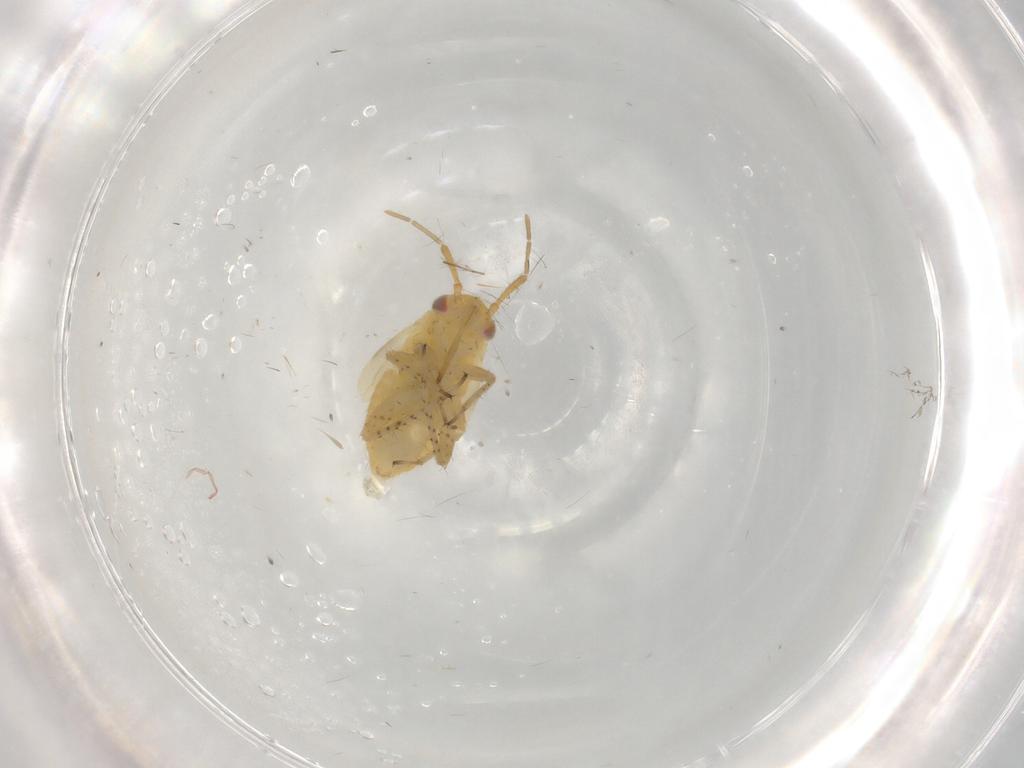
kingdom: Animalia
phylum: Arthropoda
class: Insecta
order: Hemiptera
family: Miridae
